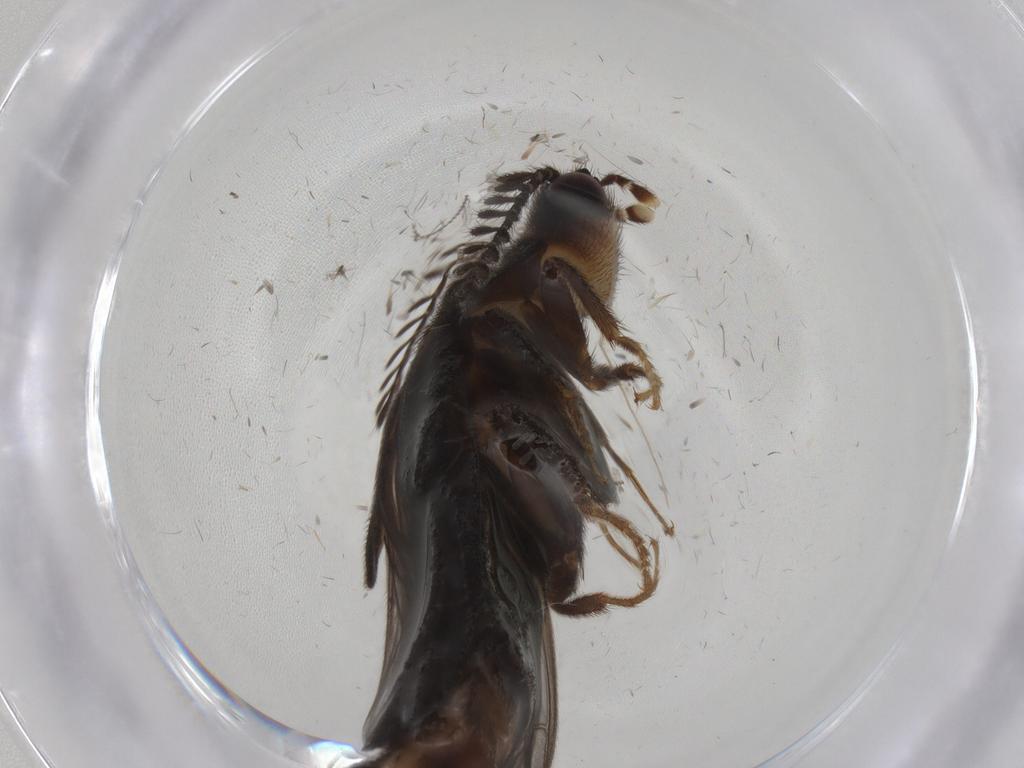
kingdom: Animalia
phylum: Arthropoda
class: Insecta
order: Coleoptera
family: Phengodidae
